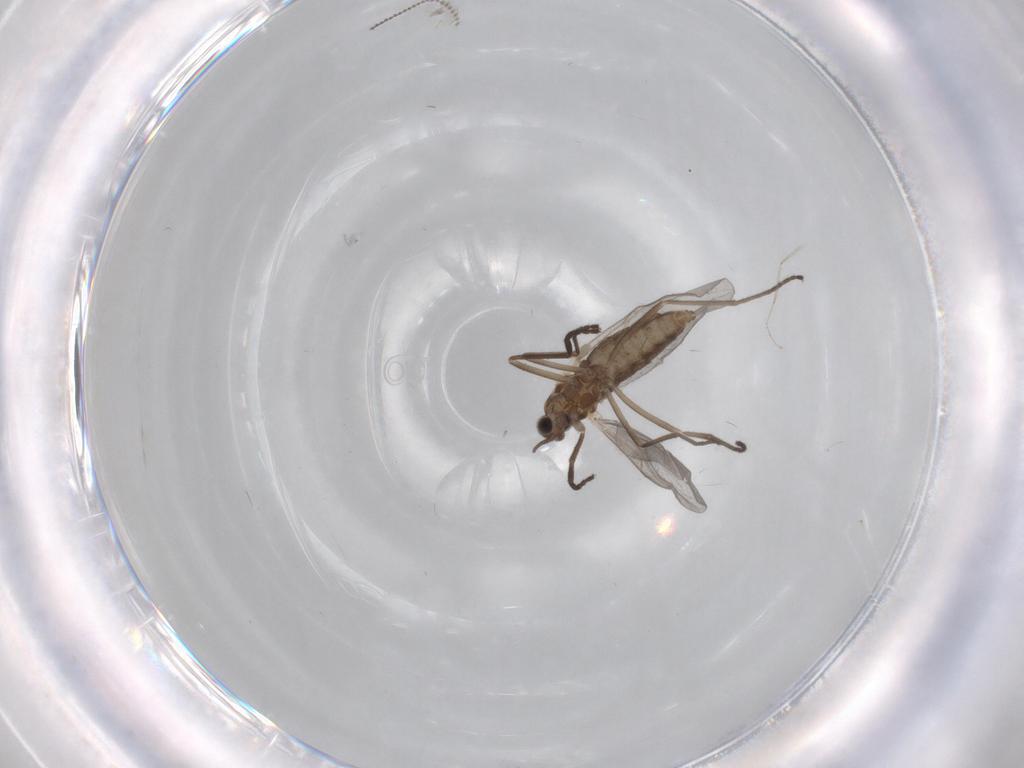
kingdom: Animalia
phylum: Arthropoda
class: Insecta
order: Diptera
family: Cecidomyiidae
